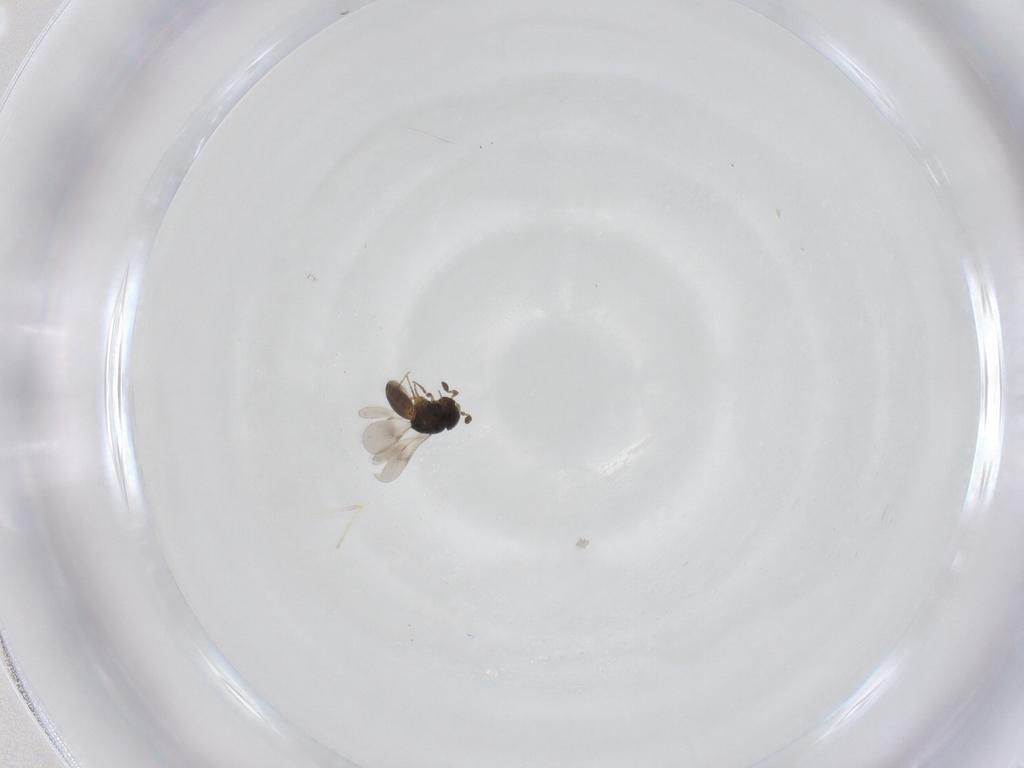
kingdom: Animalia
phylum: Arthropoda
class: Insecta
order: Hymenoptera
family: Scelionidae
